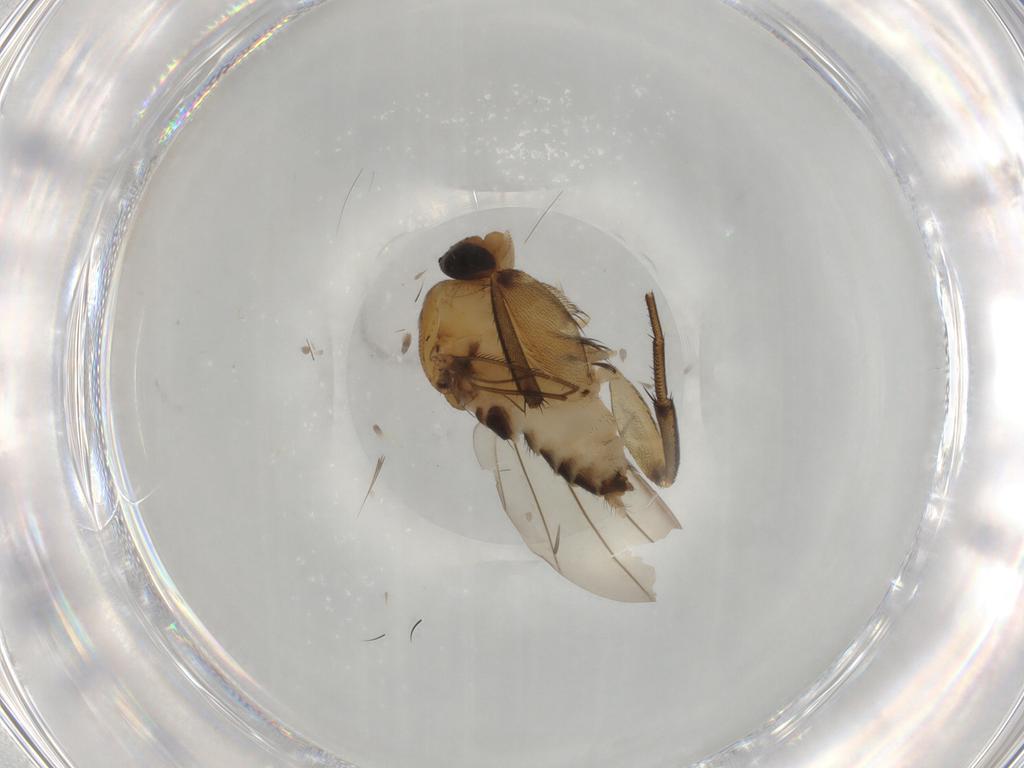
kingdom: Animalia
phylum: Arthropoda
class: Insecta
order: Diptera
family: Phoridae
